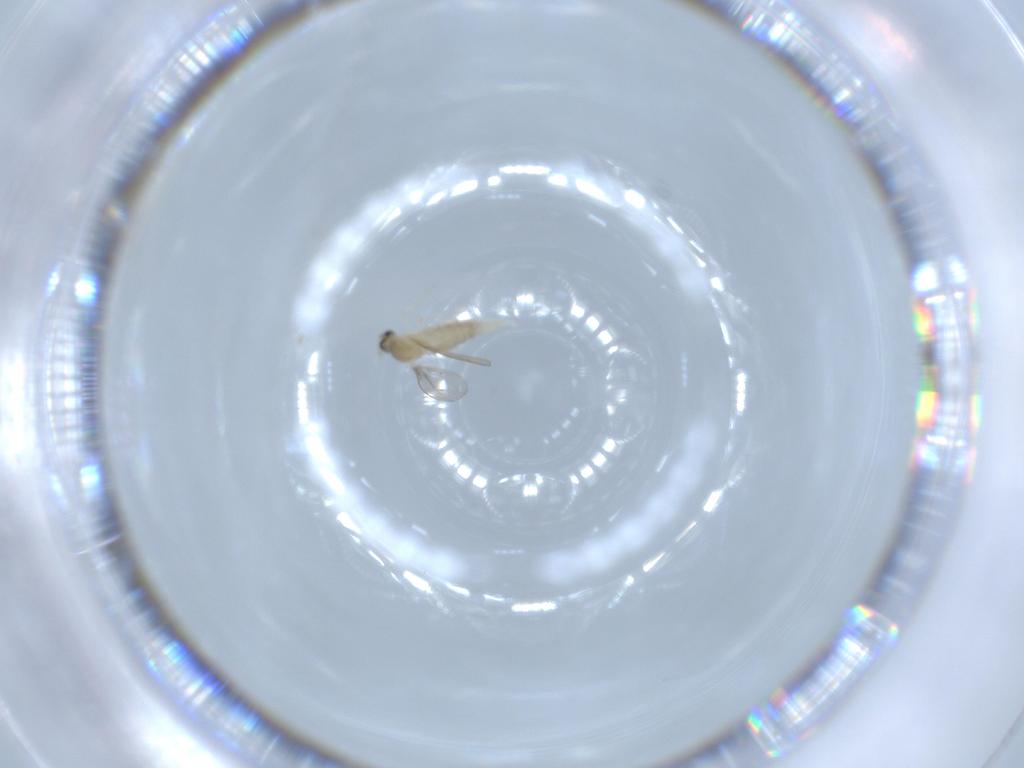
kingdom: Animalia
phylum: Arthropoda
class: Insecta
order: Diptera
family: Cecidomyiidae
